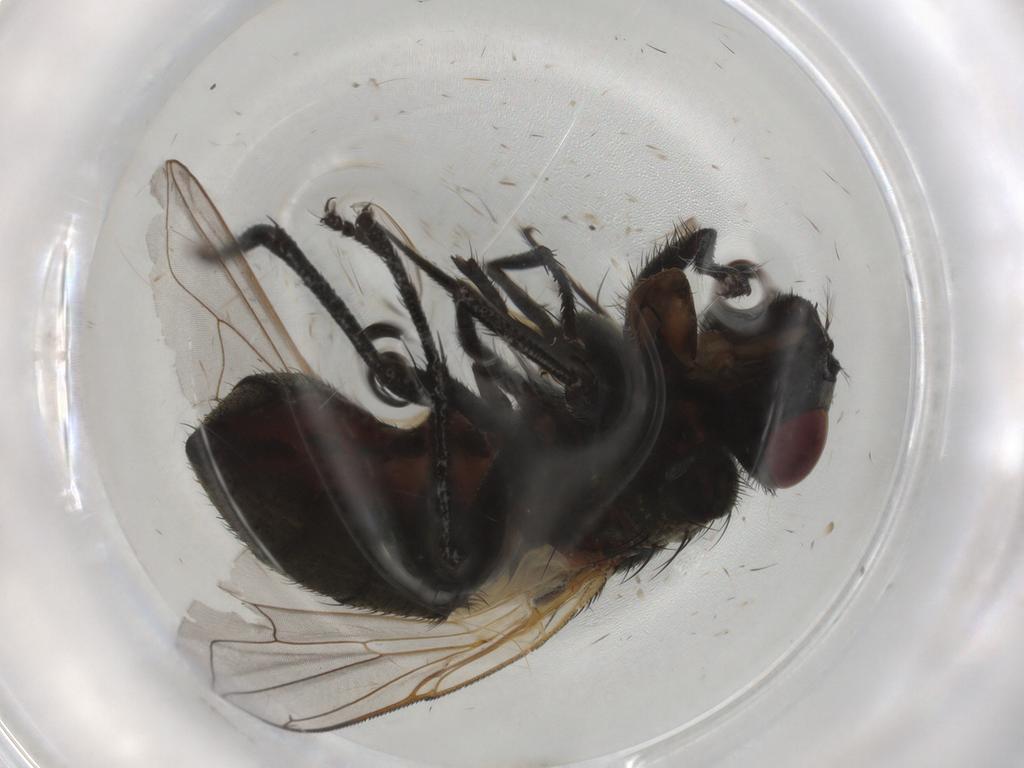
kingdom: Animalia
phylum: Arthropoda
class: Insecta
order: Diptera
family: Muscidae
